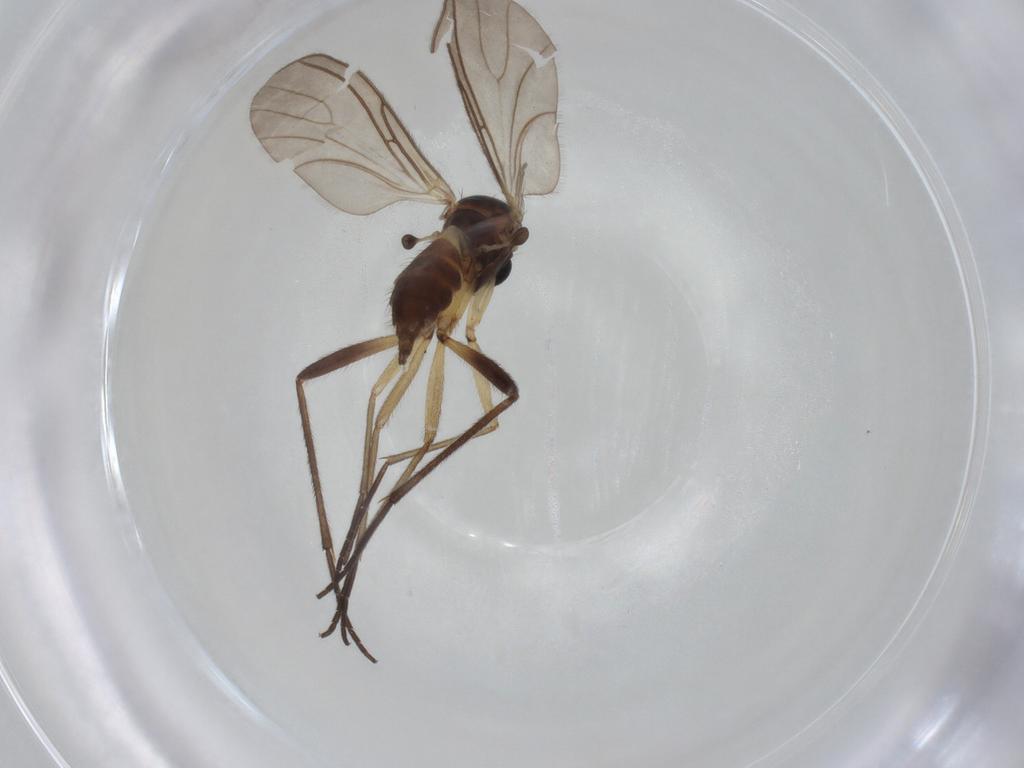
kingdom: Animalia
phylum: Arthropoda
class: Insecta
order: Diptera
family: Sciaridae
